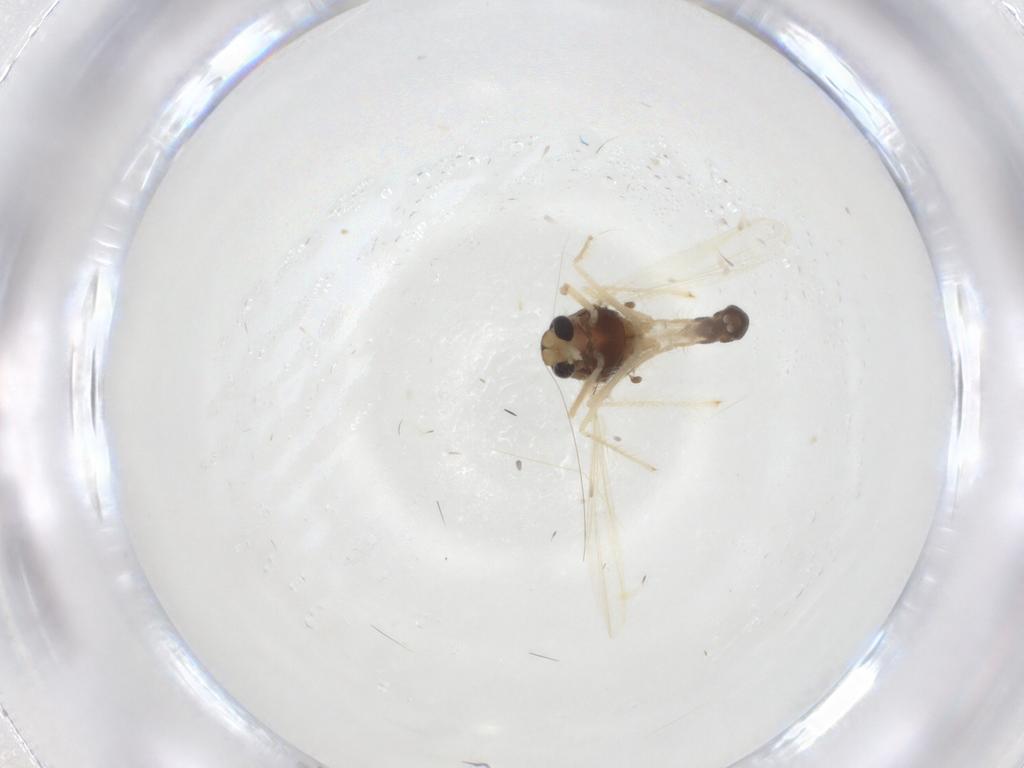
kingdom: Animalia
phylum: Arthropoda
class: Insecta
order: Diptera
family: Chironomidae
